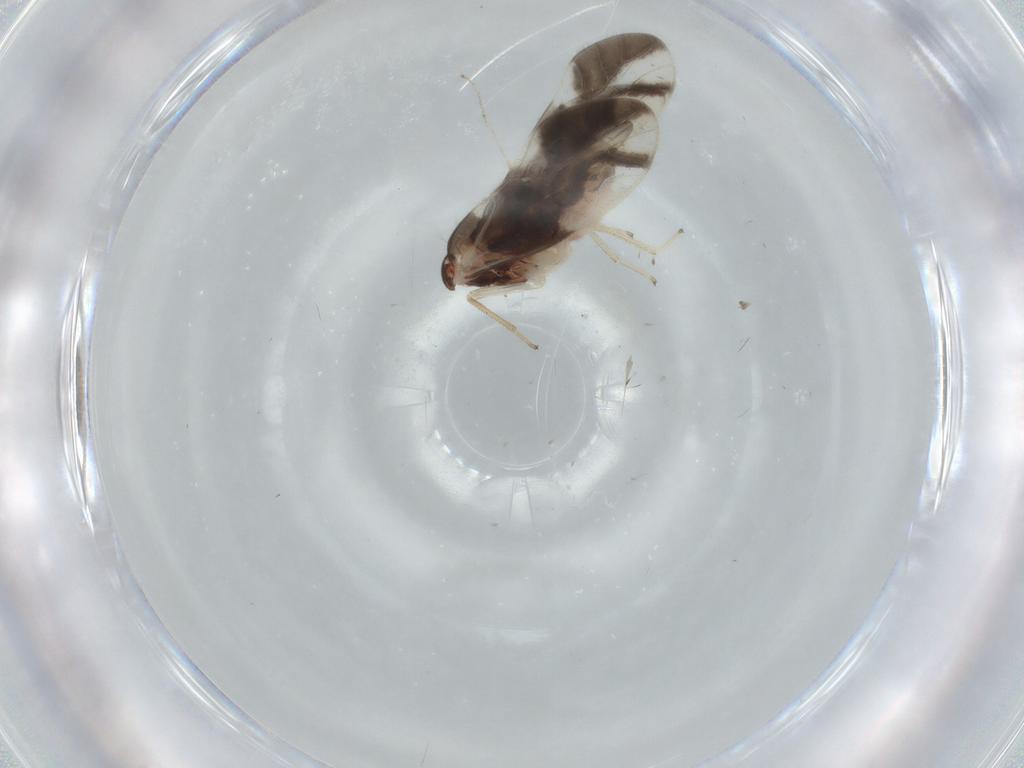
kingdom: Animalia
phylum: Arthropoda
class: Insecta
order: Psocodea
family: Caeciliusidae
